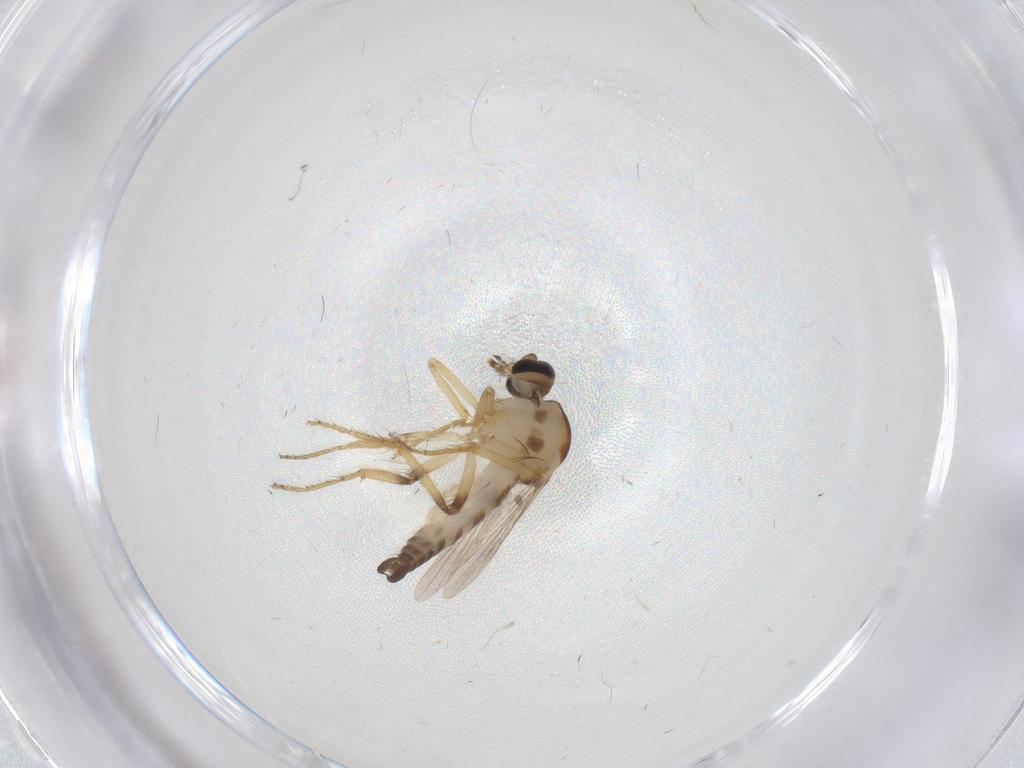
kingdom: Animalia
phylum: Arthropoda
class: Insecta
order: Diptera
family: Ceratopogonidae
